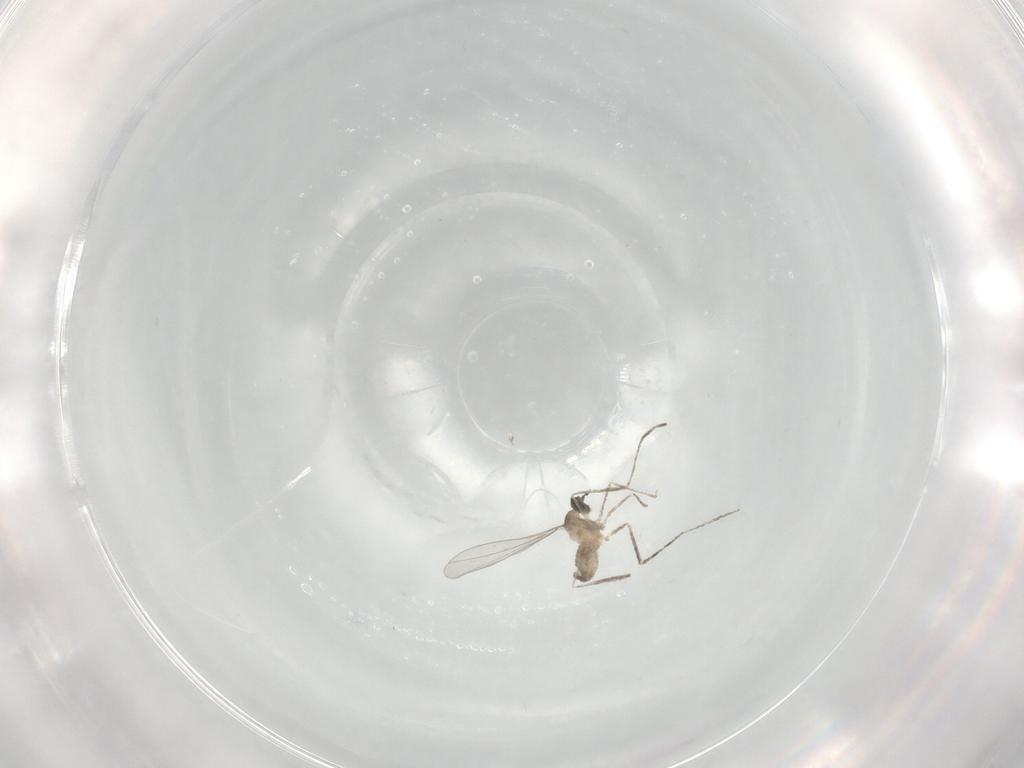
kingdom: Animalia
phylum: Arthropoda
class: Insecta
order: Diptera
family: Cecidomyiidae
